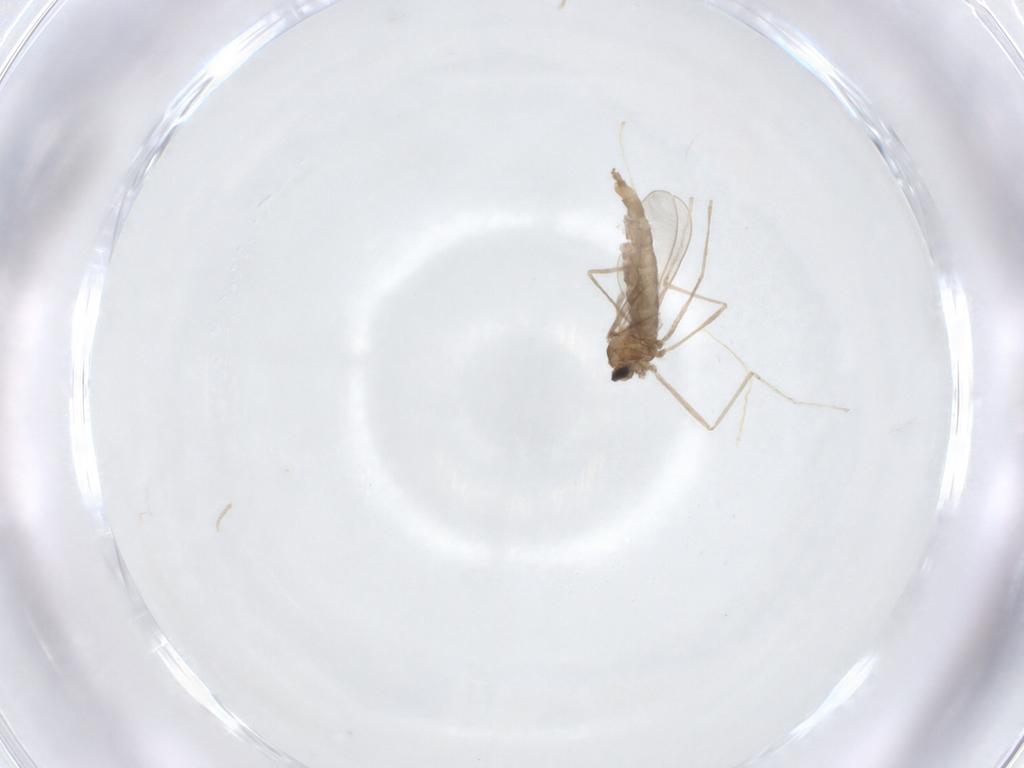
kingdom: Animalia
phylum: Arthropoda
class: Insecta
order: Diptera
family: Cecidomyiidae
